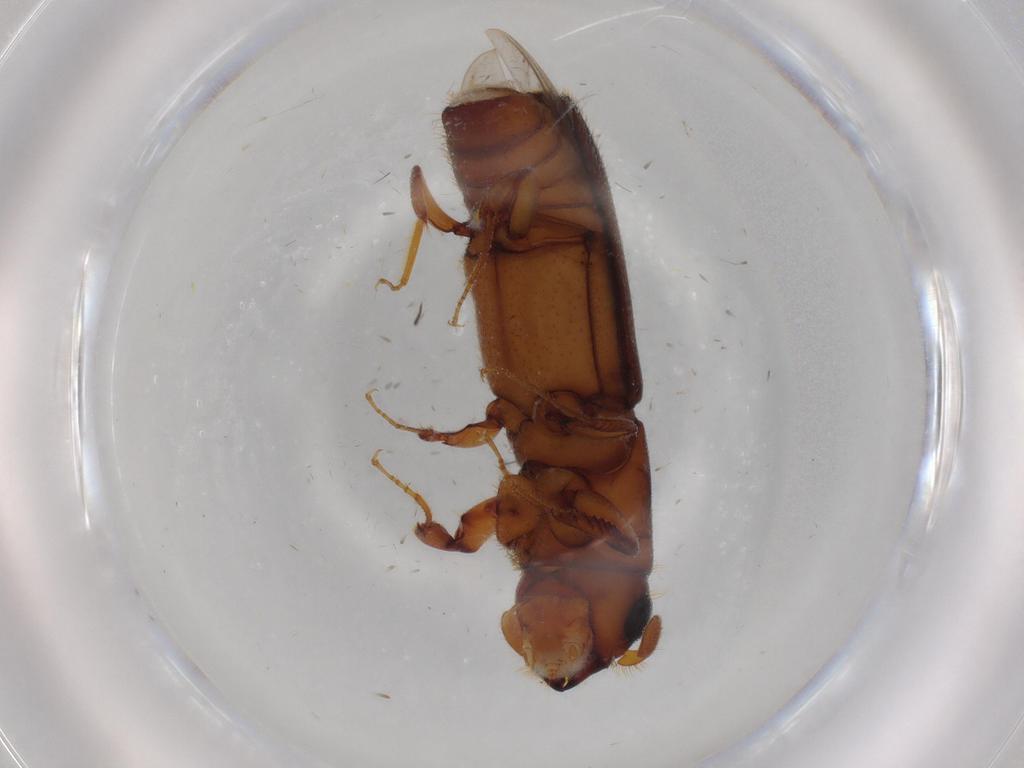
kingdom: Animalia
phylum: Arthropoda
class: Insecta
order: Coleoptera
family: Curculionidae
